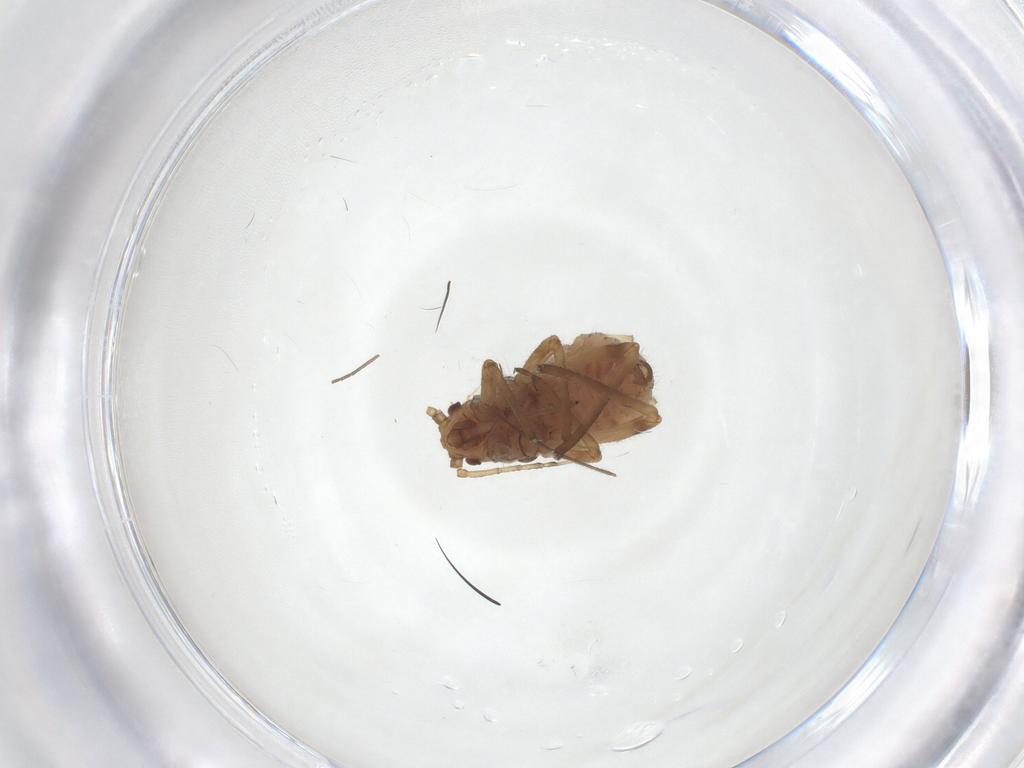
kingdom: Animalia
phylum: Arthropoda
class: Insecta
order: Hemiptera
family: Aphididae
